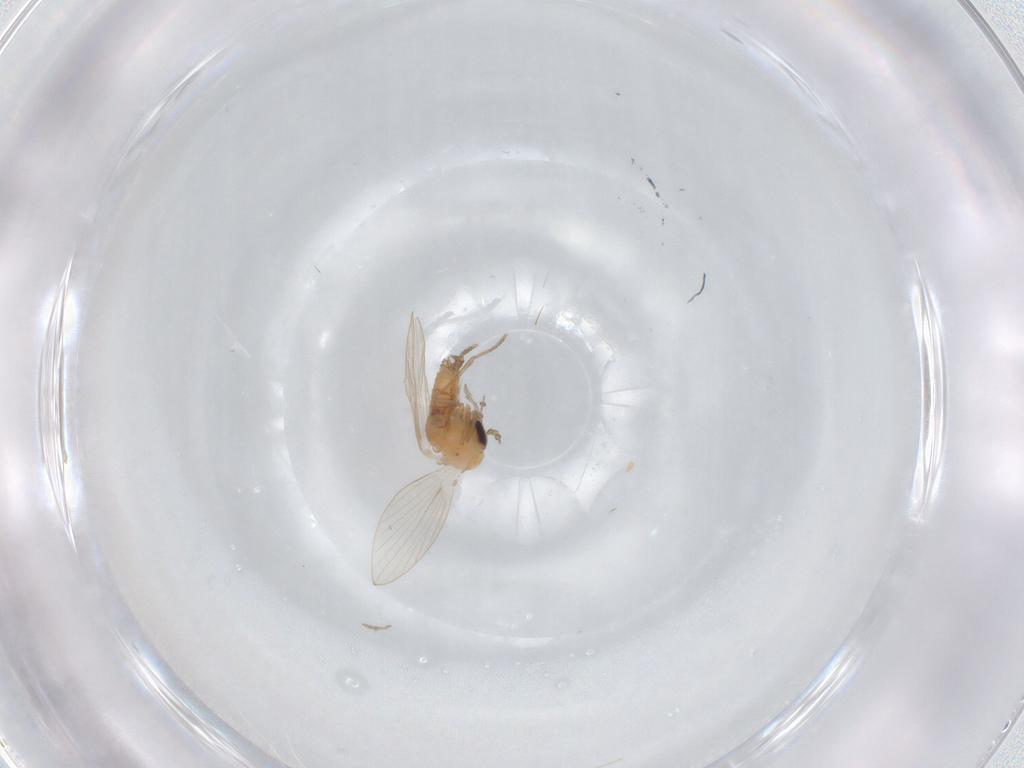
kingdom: Animalia
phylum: Arthropoda
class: Insecta
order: Diptera
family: Psychodidae
